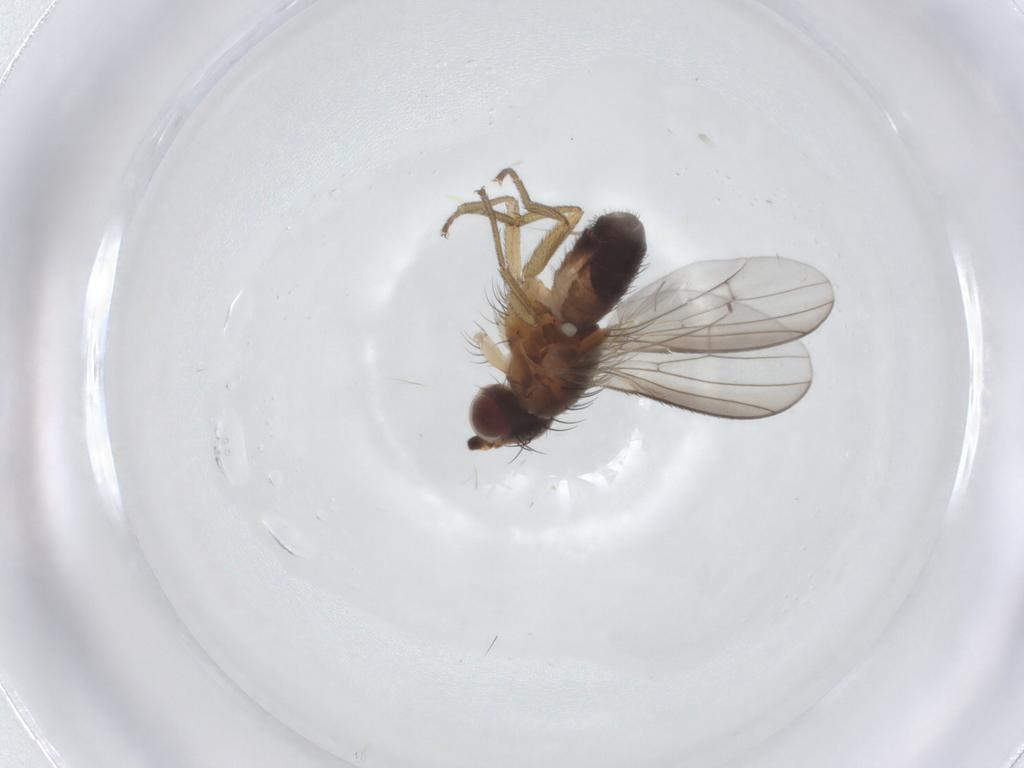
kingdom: Animalia
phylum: Arthropoda
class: Insecta
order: Diptera
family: Heleomyzidae
